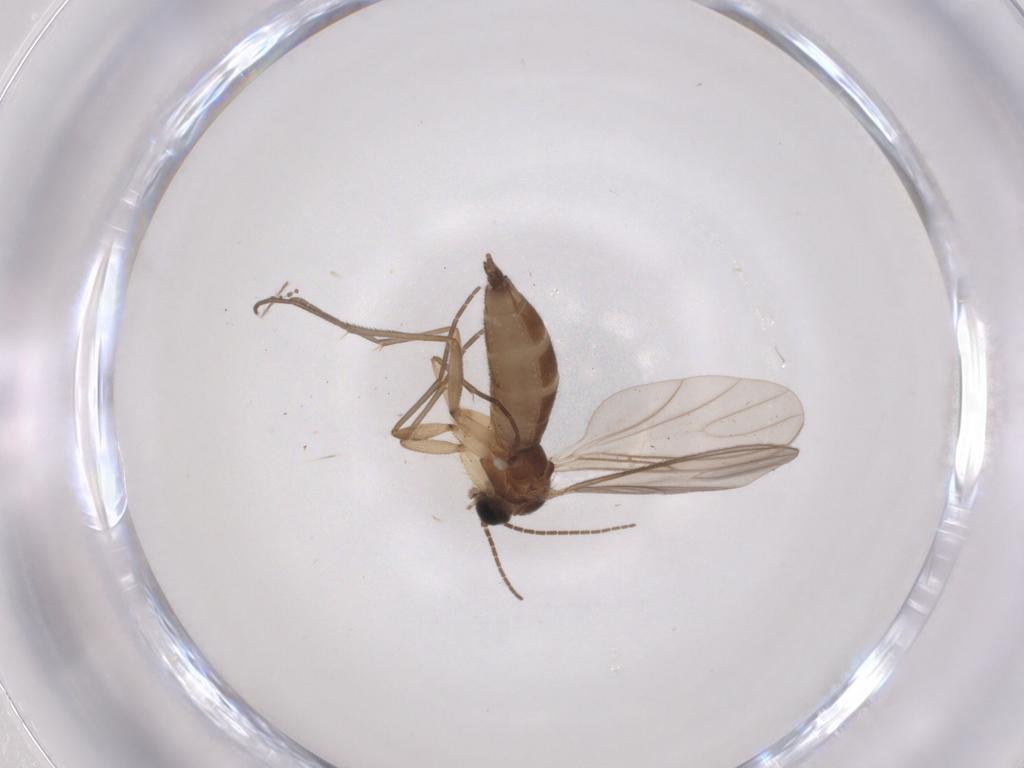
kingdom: Animalia
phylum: Arthropoda
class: Insecta
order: Diptera
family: Sciaridae
